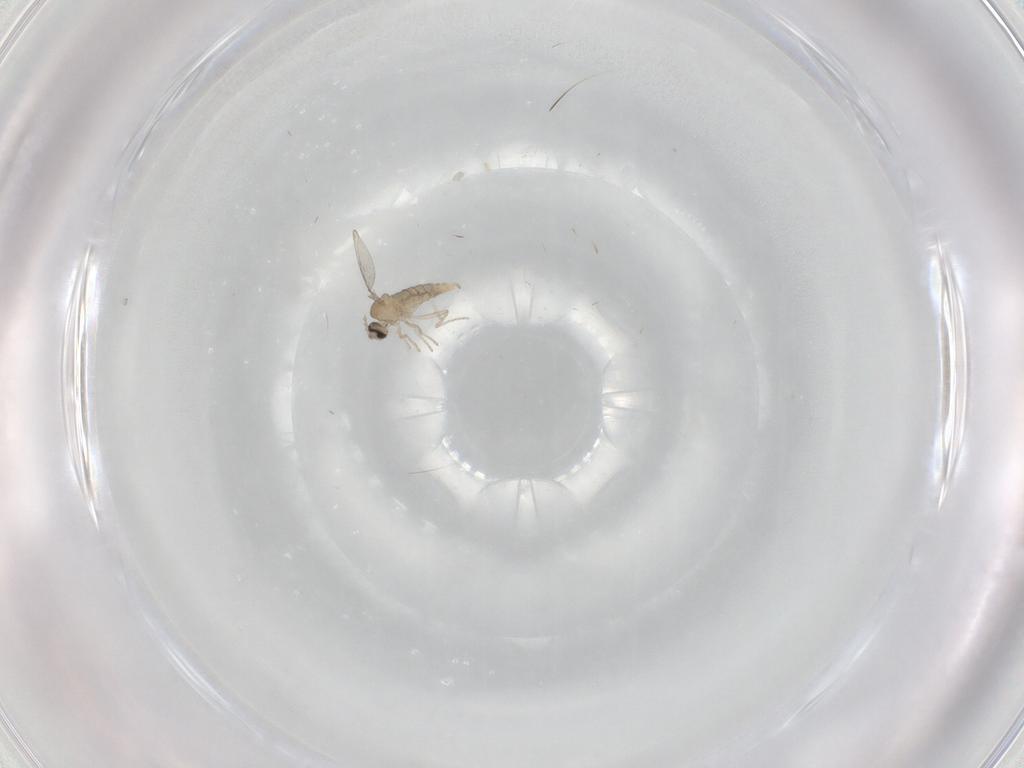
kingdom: Animalia
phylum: Arthropoda
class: Insecta
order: Diptera
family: Cecidomyiidae
